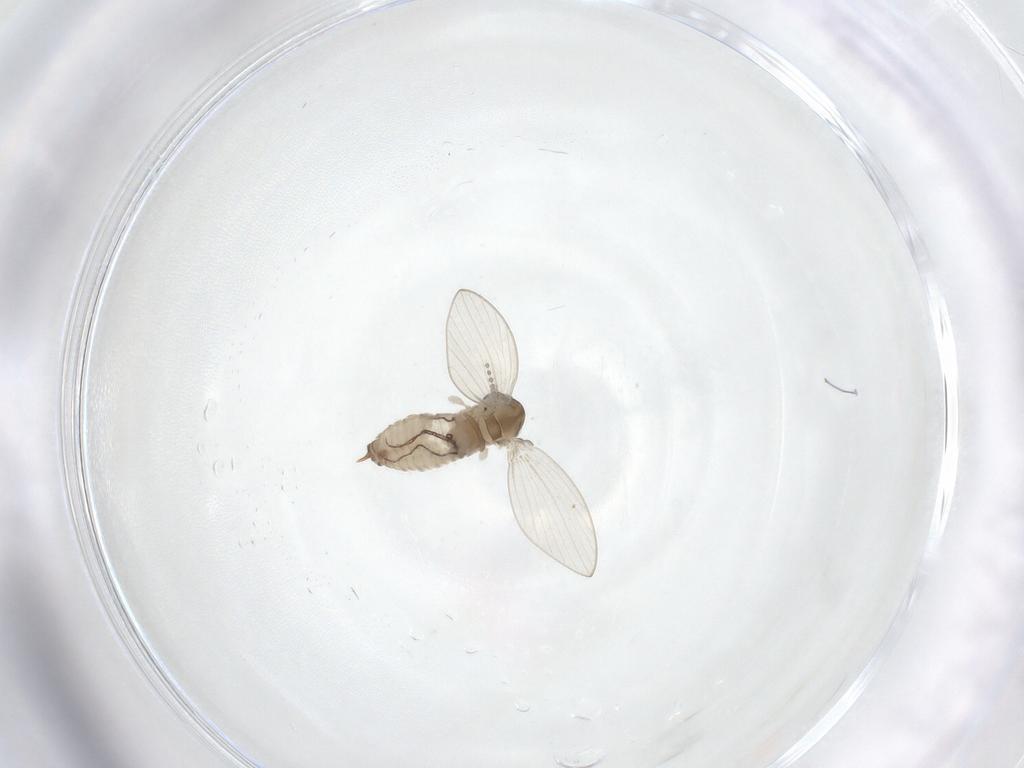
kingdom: Animalia
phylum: Arthropoda
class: Insecta
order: Diptera
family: Psychodidae
